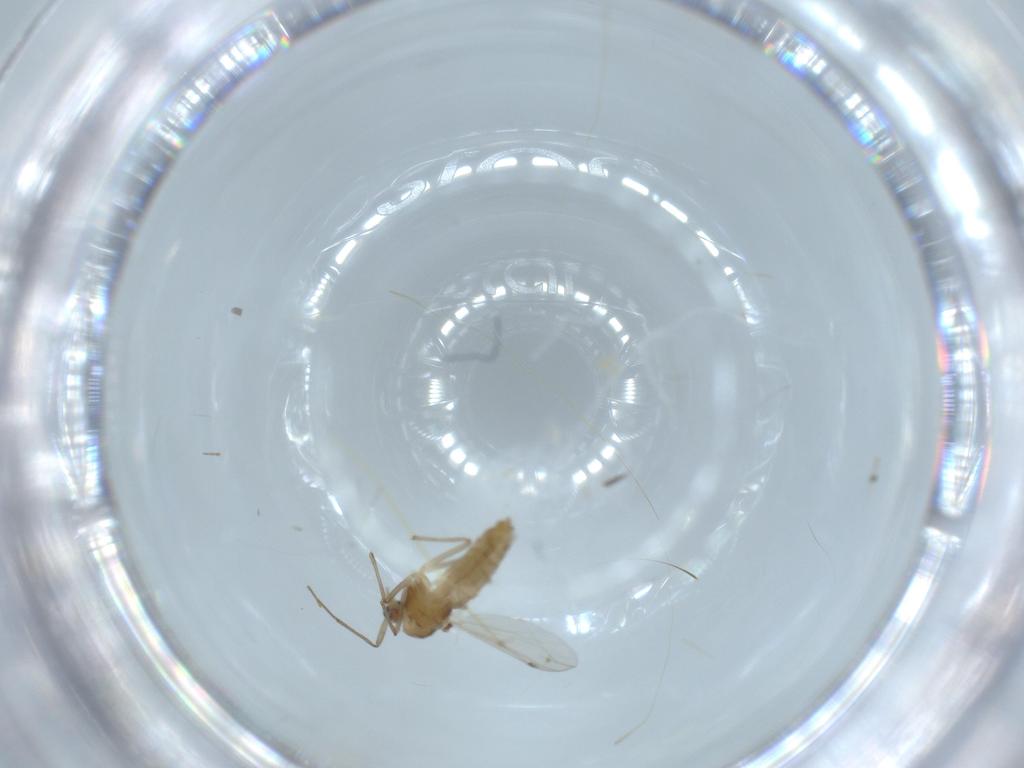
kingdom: Animalia
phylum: Arthropoda
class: Insecta
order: Diptera
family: Chironomidae
